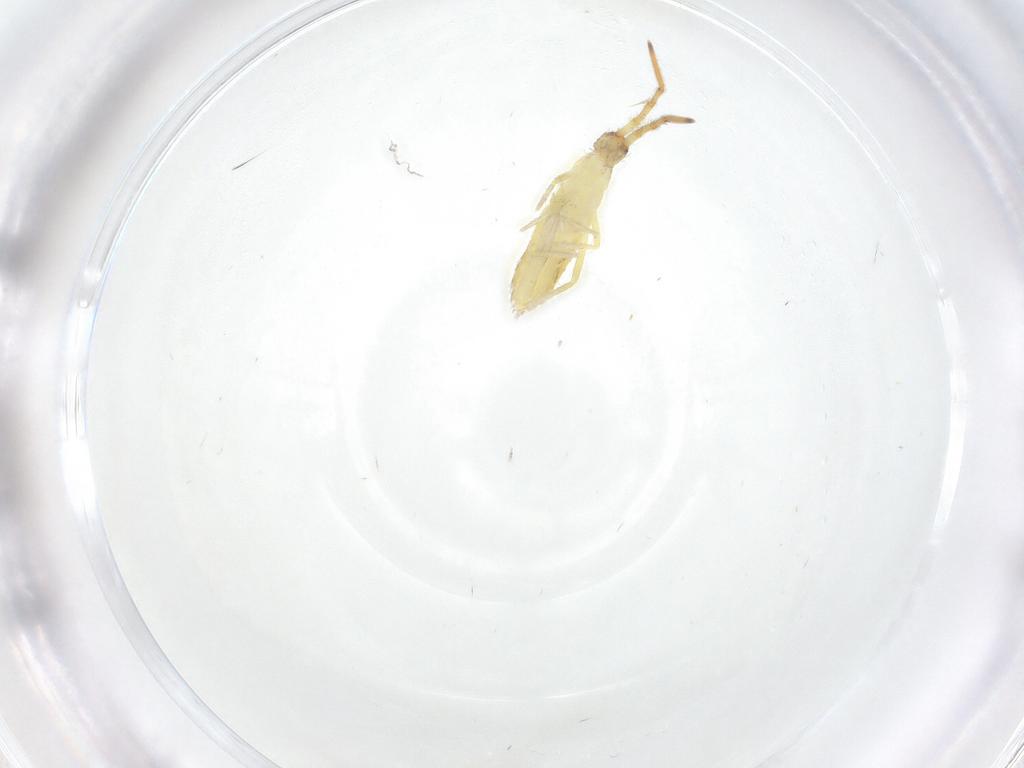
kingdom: Animalia
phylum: Arthropoda
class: Collembola
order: Entomobryomorpha
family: Entomobryidae
